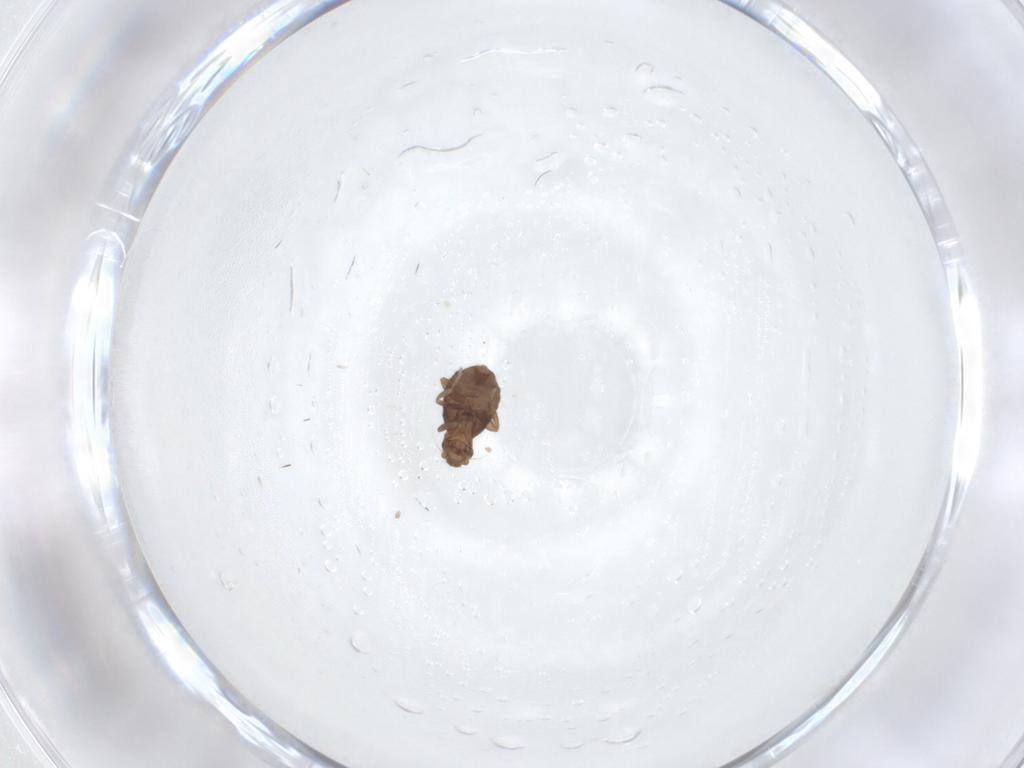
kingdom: Animalia
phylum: Arthropoda
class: Insecta
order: Diptera
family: Phoridae
